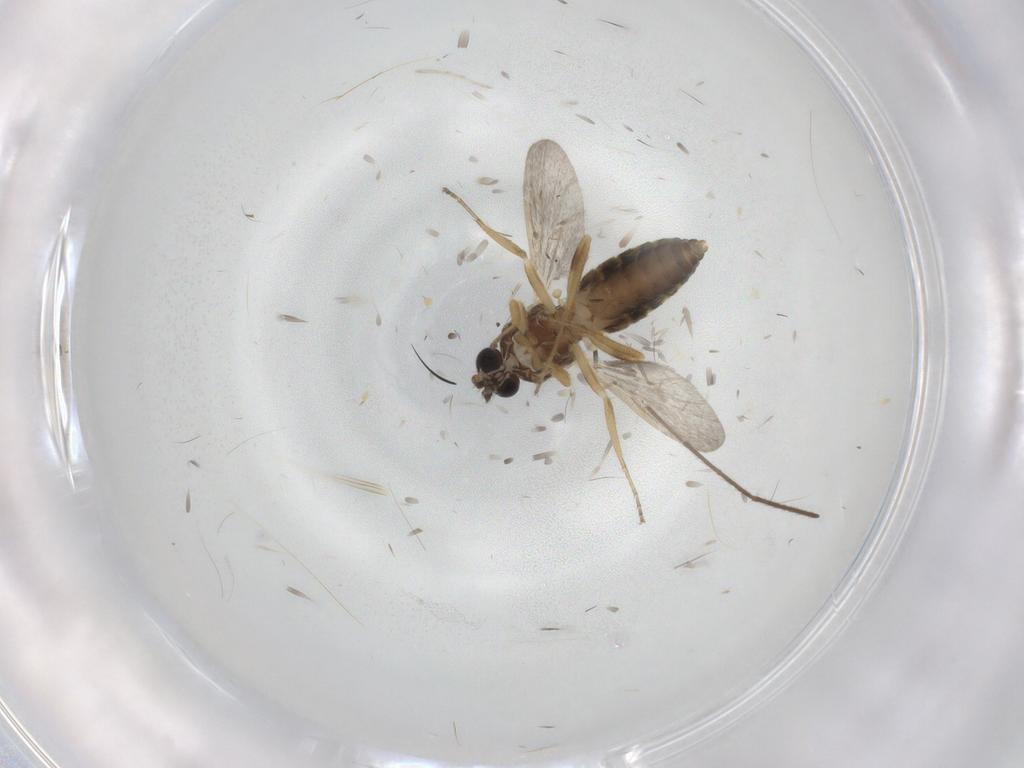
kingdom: Animalia
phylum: Arthropoda
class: Insecta
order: Diptera
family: Ceratopogonidae
